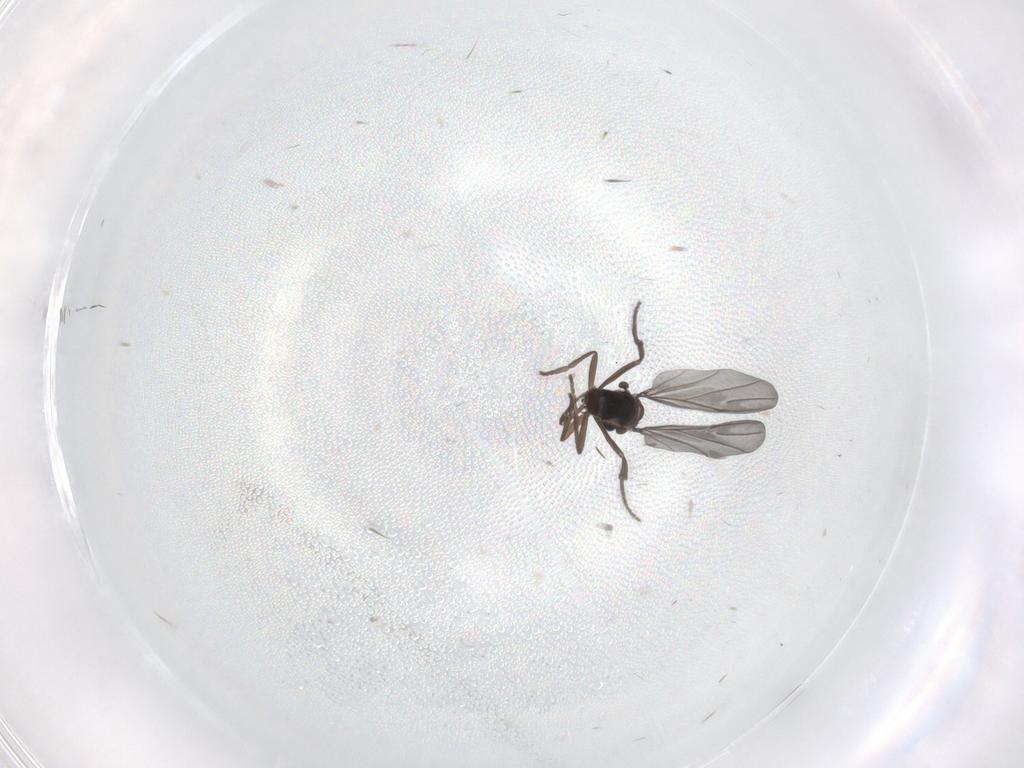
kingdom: Animalia
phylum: Arthropoda
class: Insecta
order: Diptera
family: Phoridae
